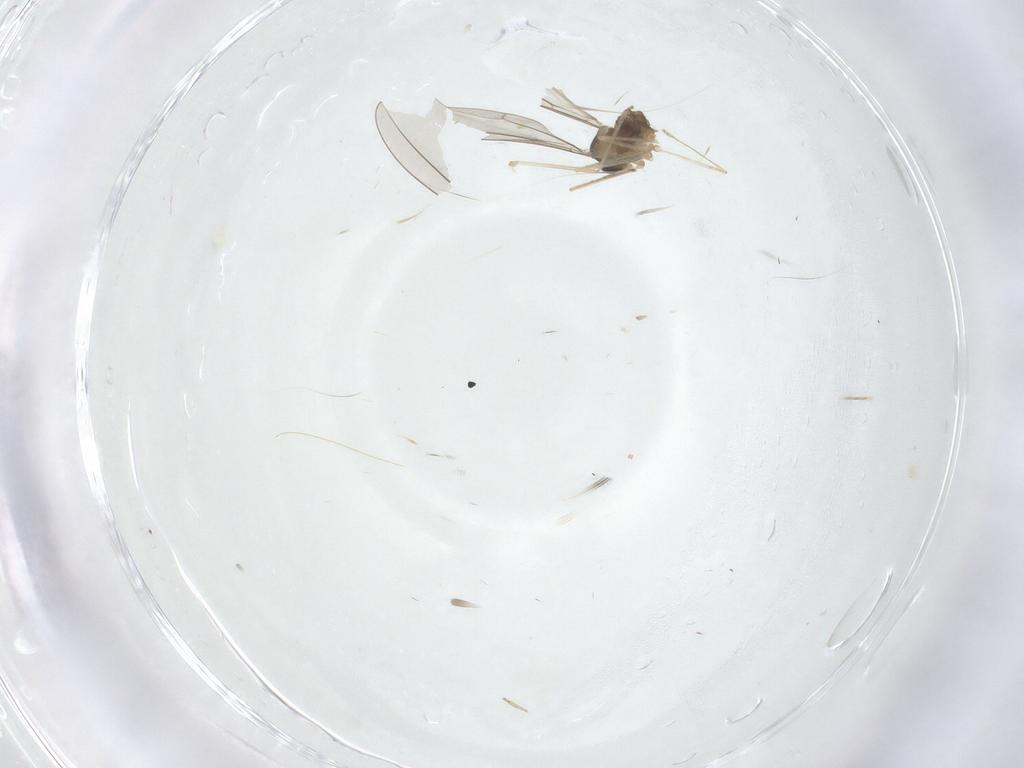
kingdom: Animalia
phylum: Arthropoda
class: Insecta
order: Diptera
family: Cecidomyiidae
